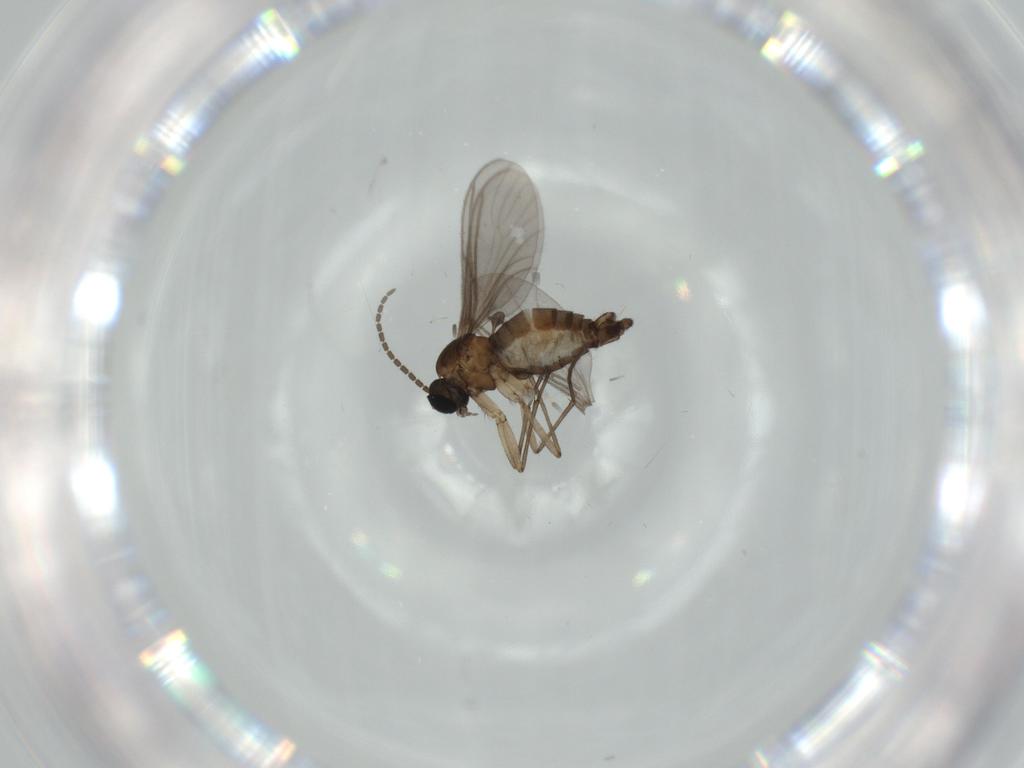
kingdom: Animalia
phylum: Arthropoda
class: Insecta
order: Diptera
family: Sciaridae
